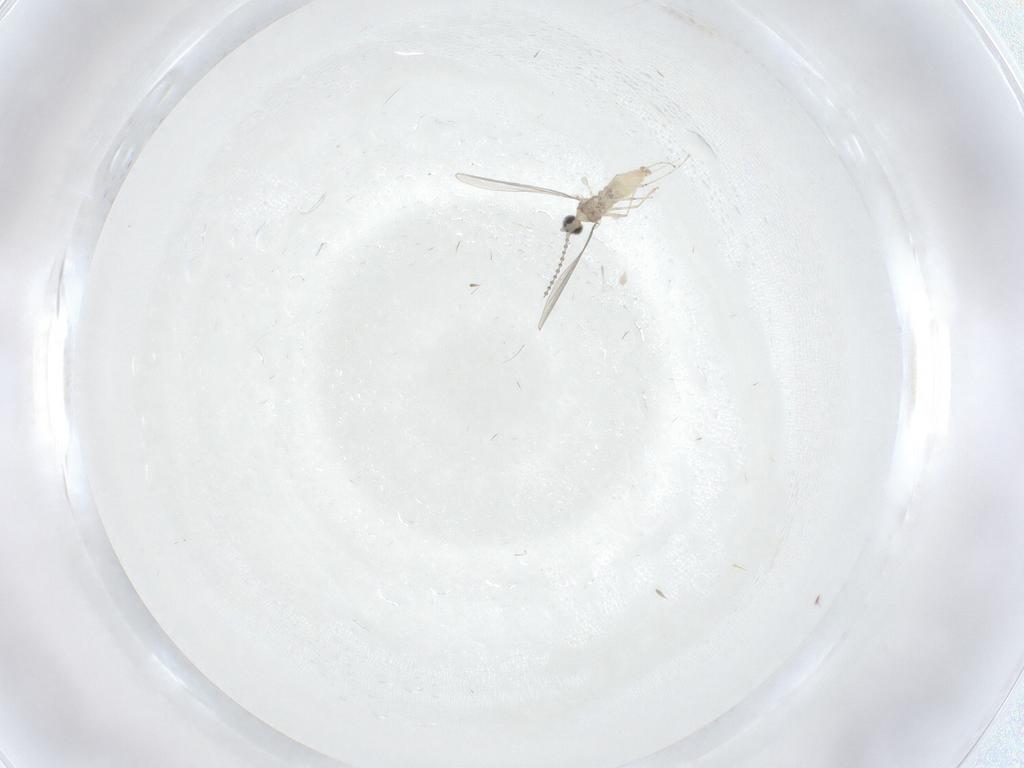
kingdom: Animalia
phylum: Arthropoda
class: Insecta
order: Diptera
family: Cecidomyiidae
